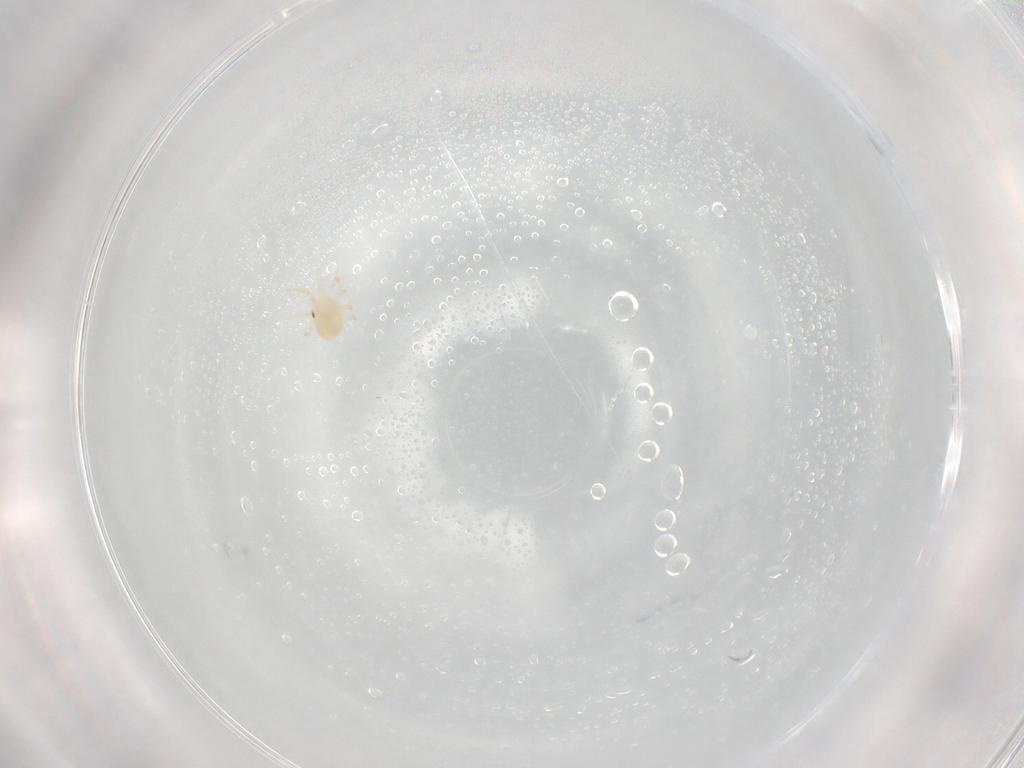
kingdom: Animalia
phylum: Arthropoda
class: Arachnida
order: Mesostigmata
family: Phytoseiidae
